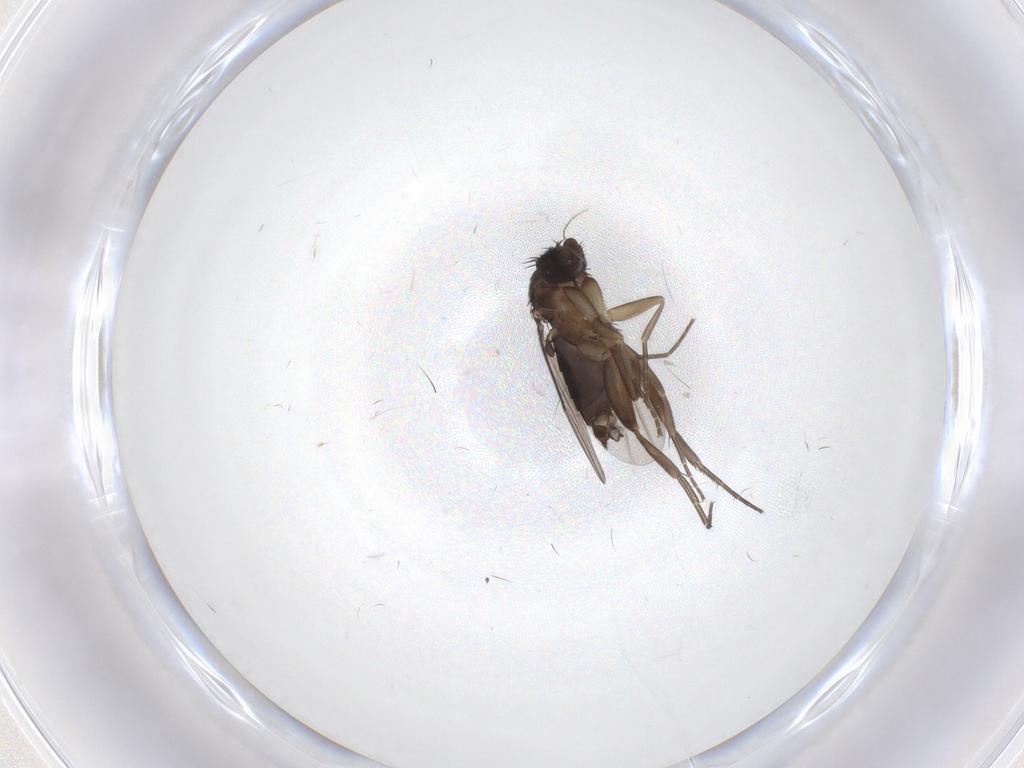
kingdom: Animalia
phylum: Arthropoda
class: Insecta
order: Diptera
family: Phoridae
